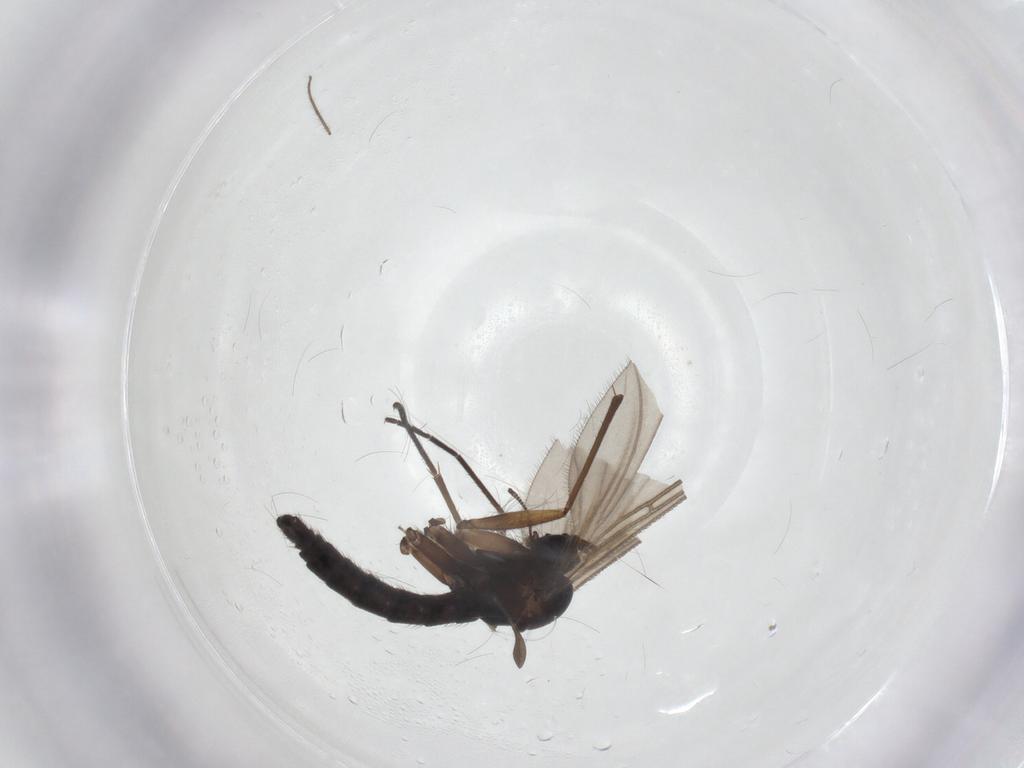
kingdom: Animalia
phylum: Arthropoda
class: Insecta
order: Diptera
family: Sciaridae
